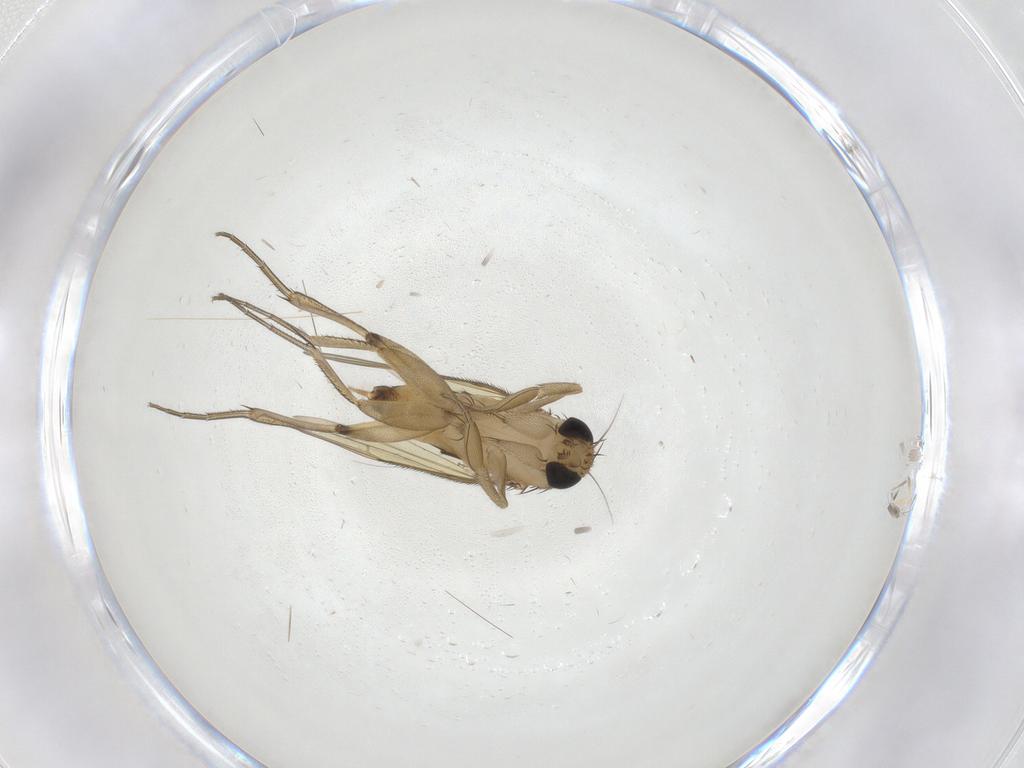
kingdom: Animalia
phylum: Arthropoda
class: Insecta
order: Diptera
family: Phoridae
